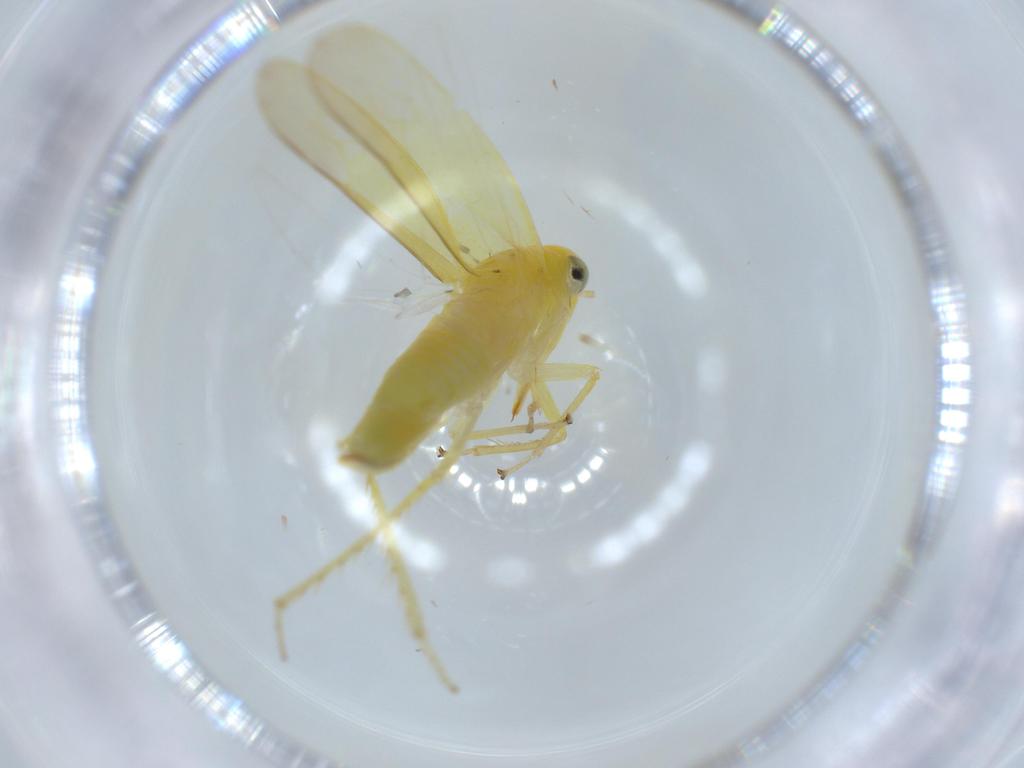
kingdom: Animalia
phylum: Arthropoda
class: Insecta
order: Hemiptera
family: Cicadellidae
